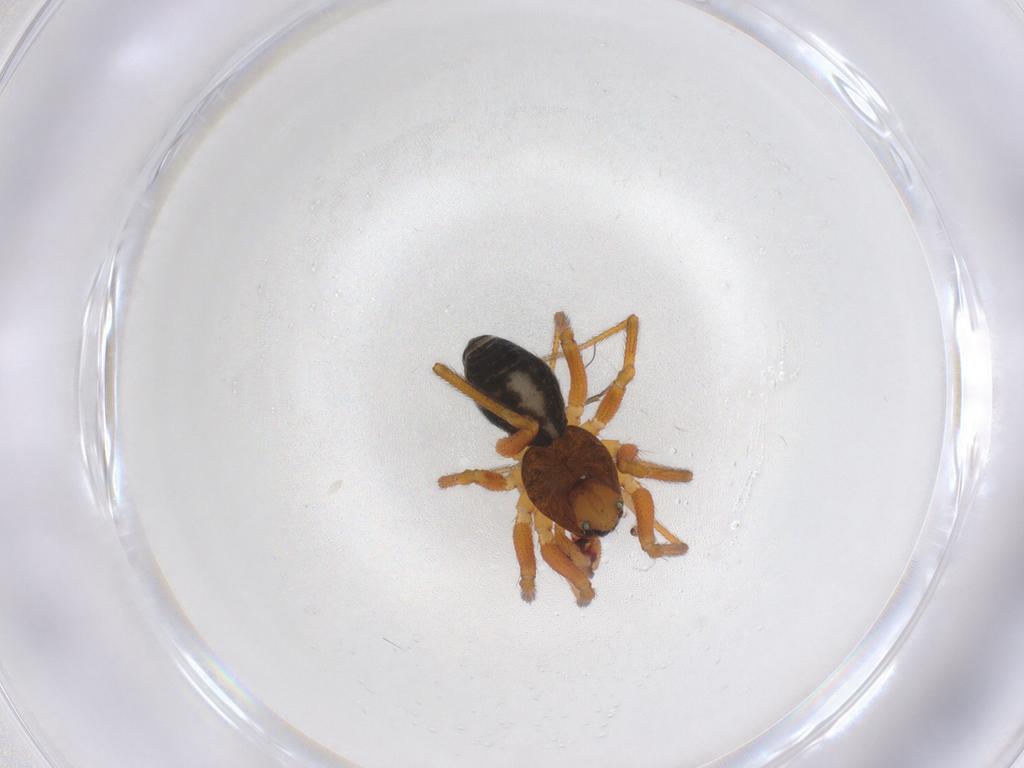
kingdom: Animalia
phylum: Arthropoda
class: Arachnida
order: Araneae
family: Linyphiidae
